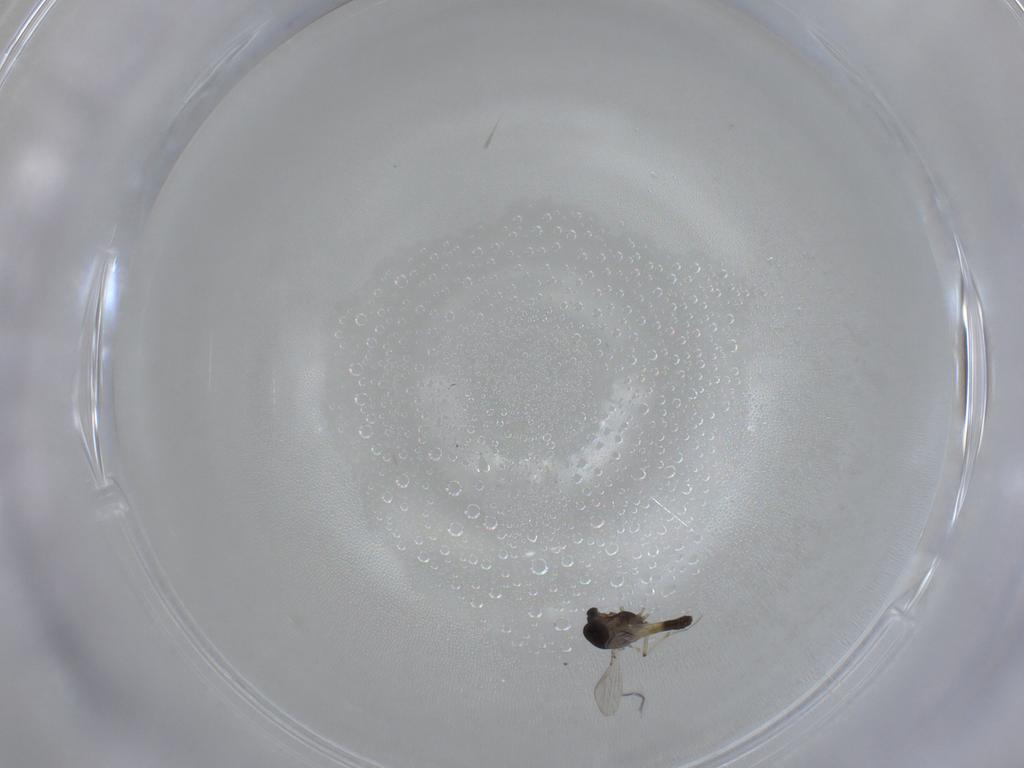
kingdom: Animalia
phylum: Arthropoda
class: Insecta
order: Diptera
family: Chironomidae
